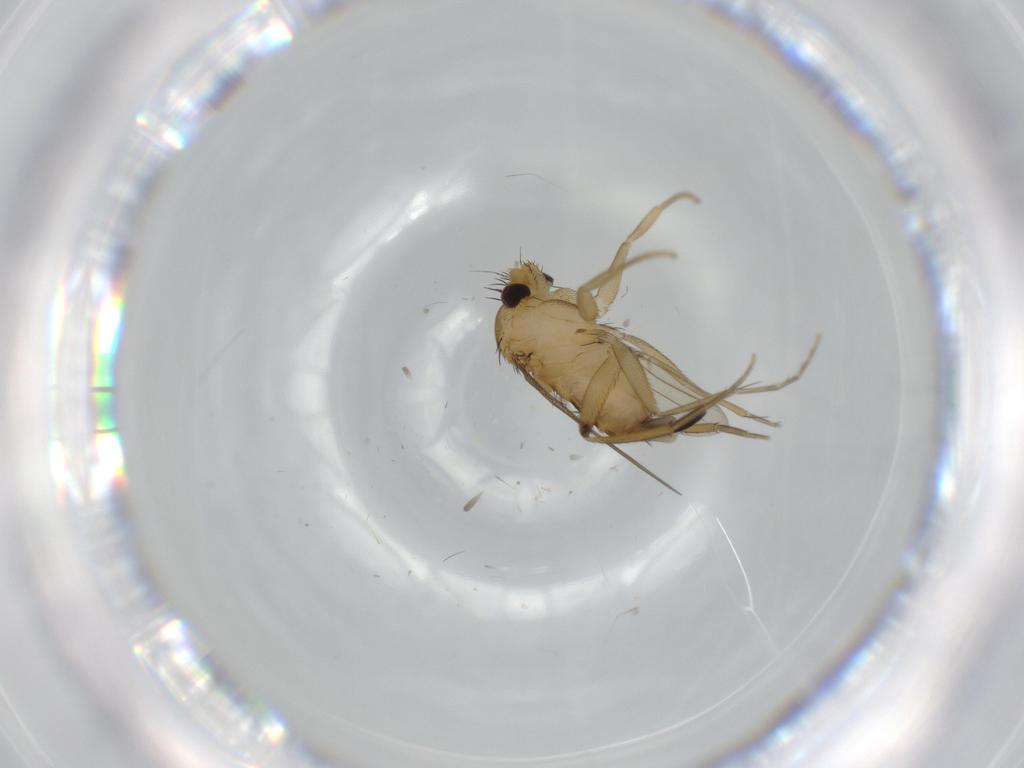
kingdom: Animalia
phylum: Arthropoda
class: Insecta
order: Diptera
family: Phoridae
